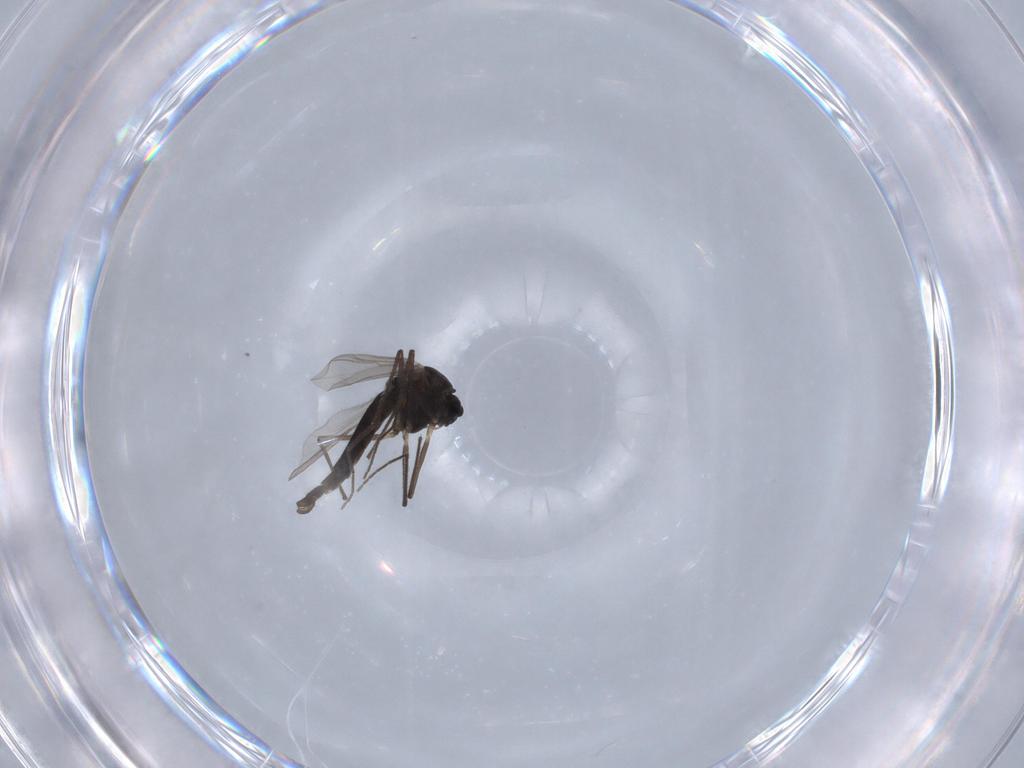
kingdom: Animalia
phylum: Arthropoda
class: Insecta
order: Diptera
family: Chironomidae
